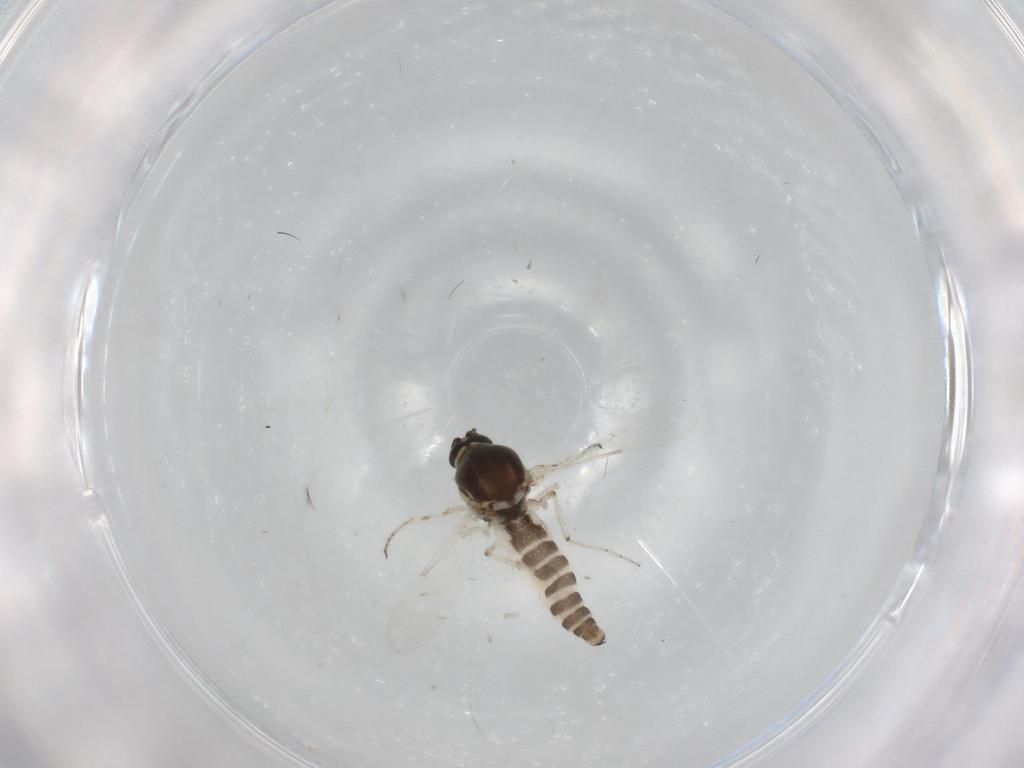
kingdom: Animalia
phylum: Arthropoda
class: Insecta
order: Diptera
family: Ceratopogonidae
